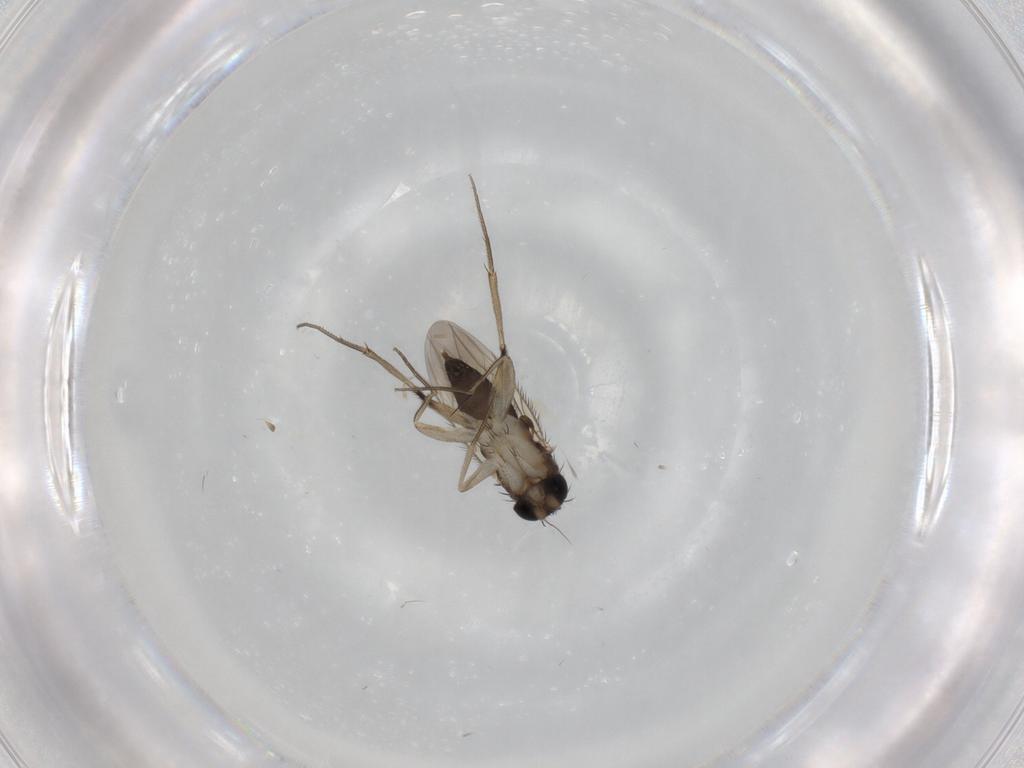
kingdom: Animalia
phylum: Arthropoda
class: Insecta
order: Diptera
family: Phoridae
